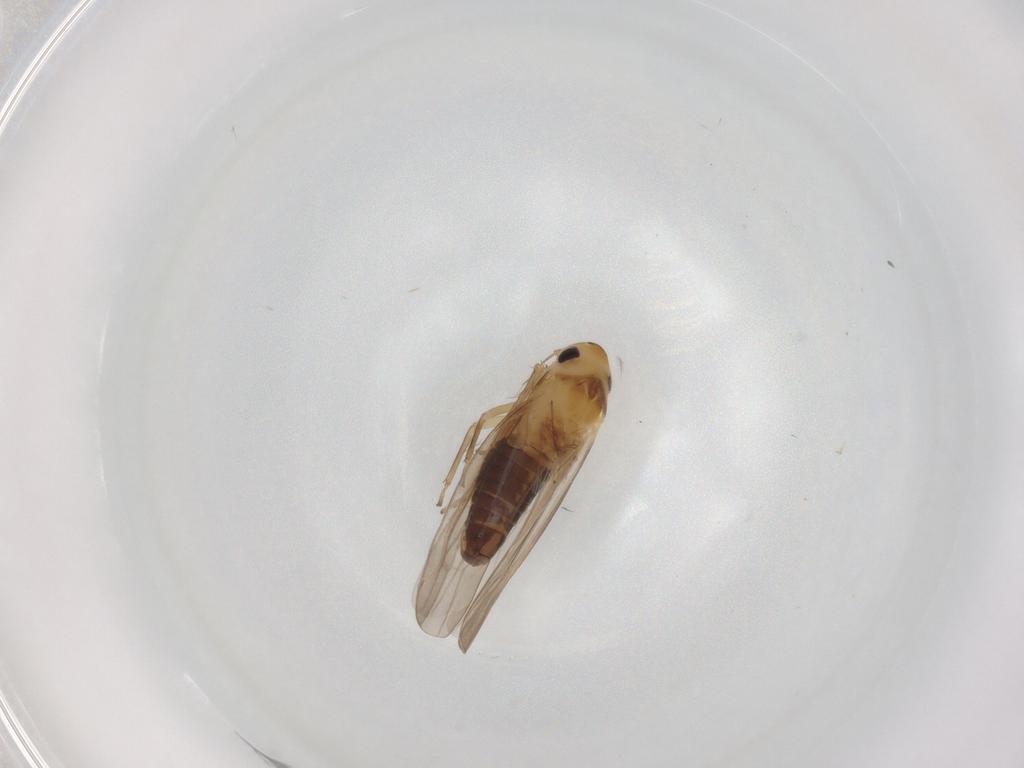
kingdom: Animalia
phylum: Arthropoda
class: Insecta
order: Hemiptera
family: Cicadellidae
